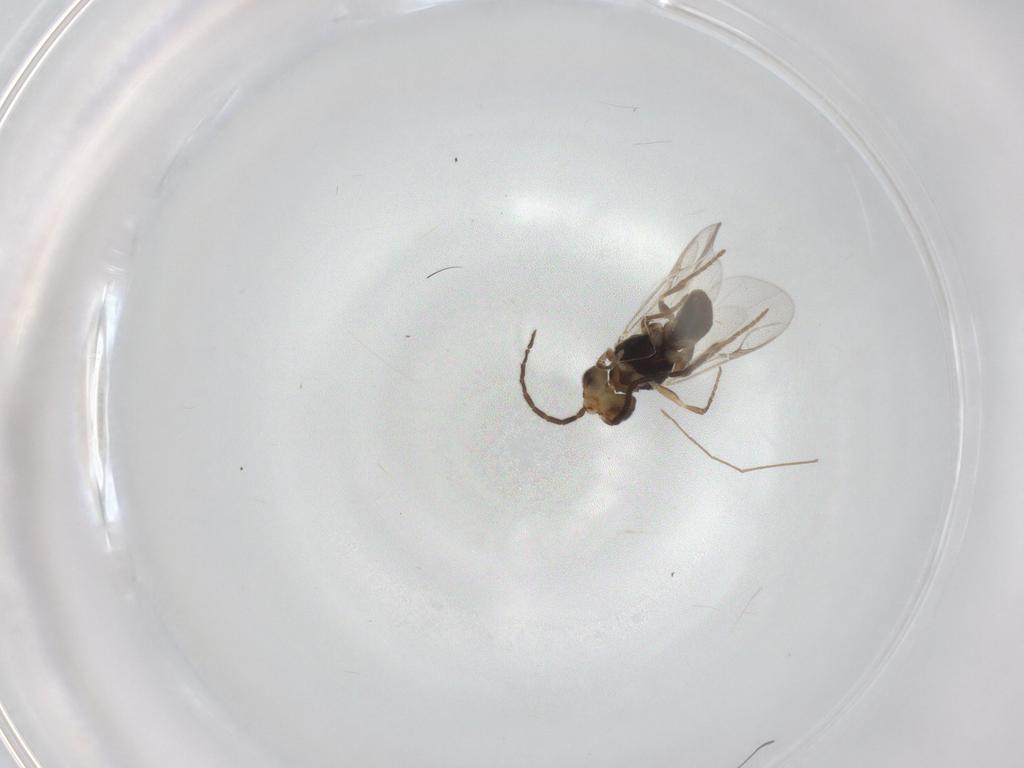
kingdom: Animalia
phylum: Arthropoda
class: Insecta
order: Hymenoptera
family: Dryinidae
